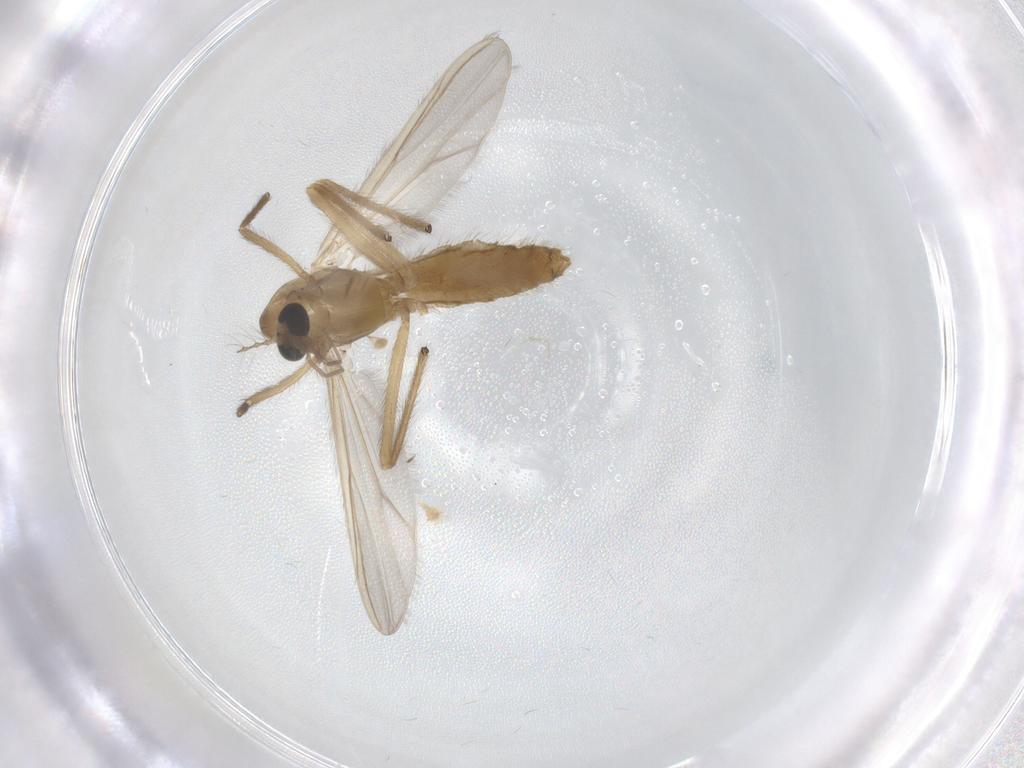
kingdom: Animalia
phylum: Arthropoda
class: Insecta
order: Diptera
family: Chironomidae
